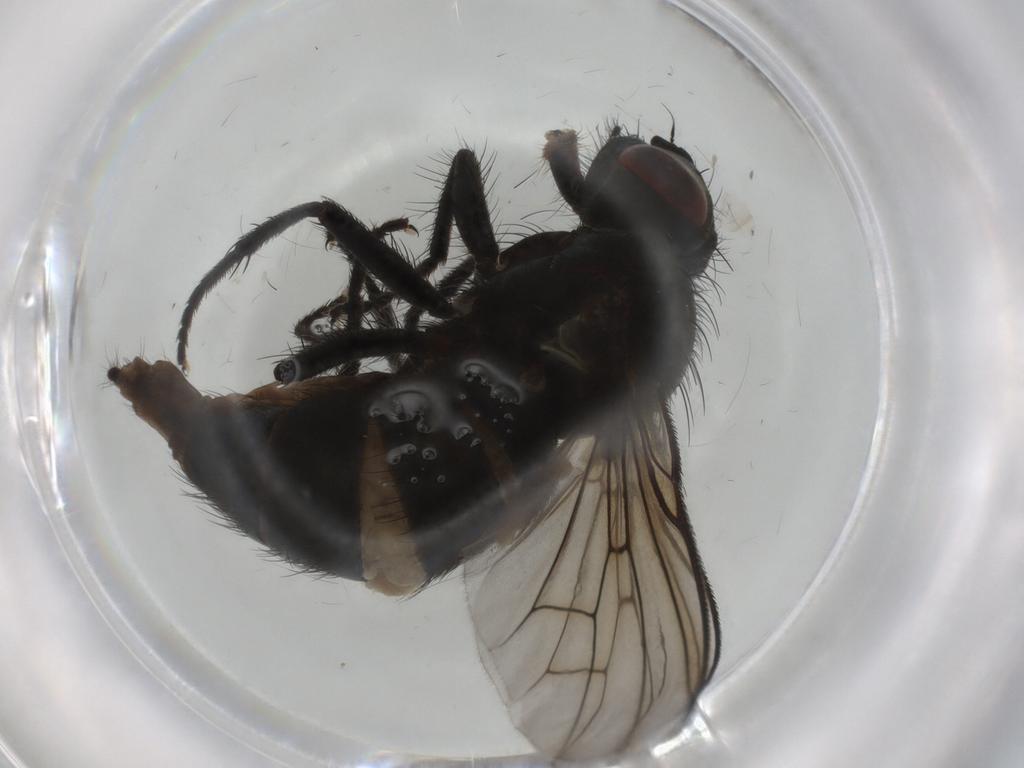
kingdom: Animalia
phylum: Arthropoda
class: Insecta
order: Diptera
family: Muscidae
